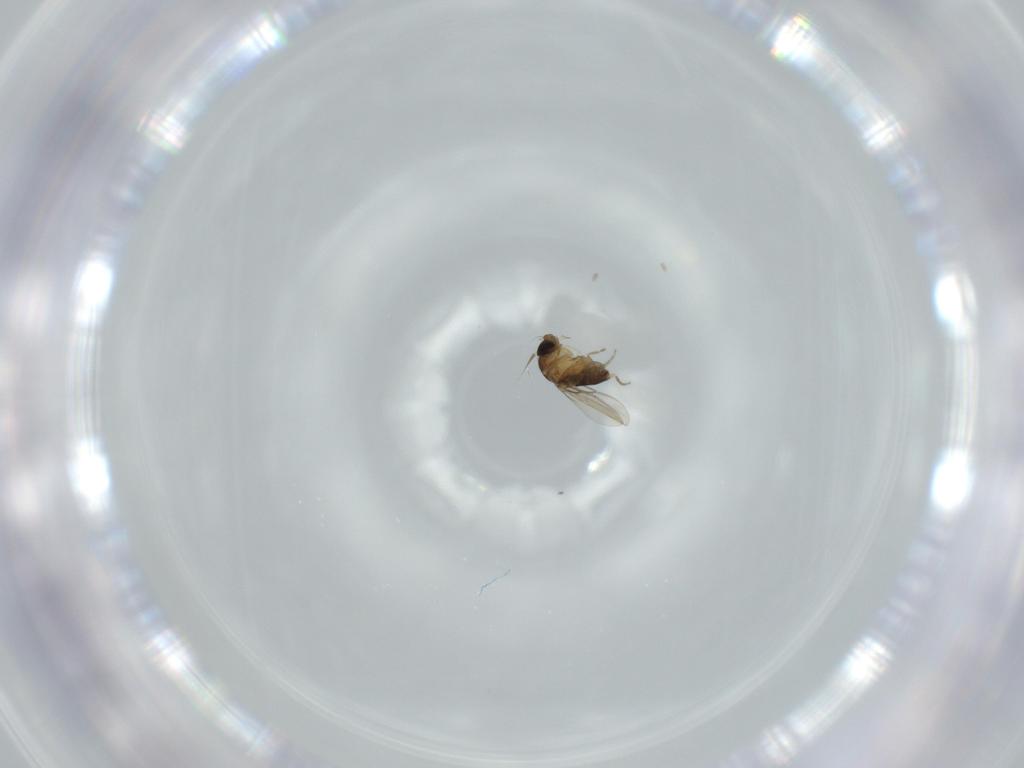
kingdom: Animalia
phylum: Arthropoda
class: Insecta
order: Diptera
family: Phoridae
